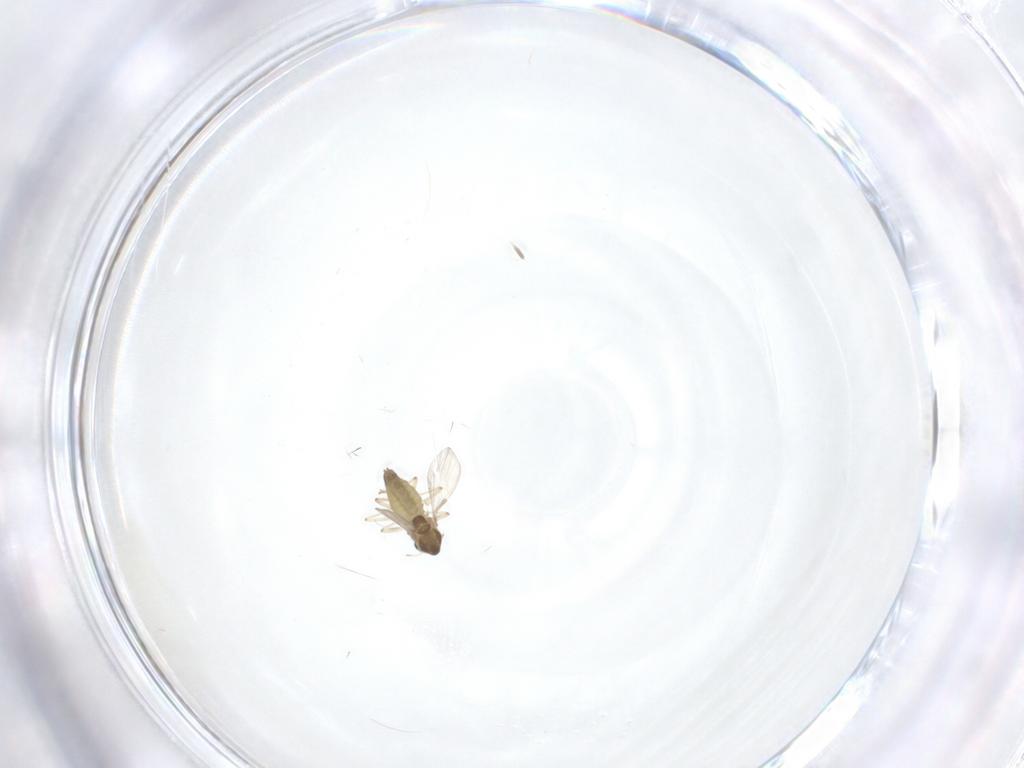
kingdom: Animalia
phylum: Arthropoda
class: Insecta
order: Diptera
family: Chironomidae
